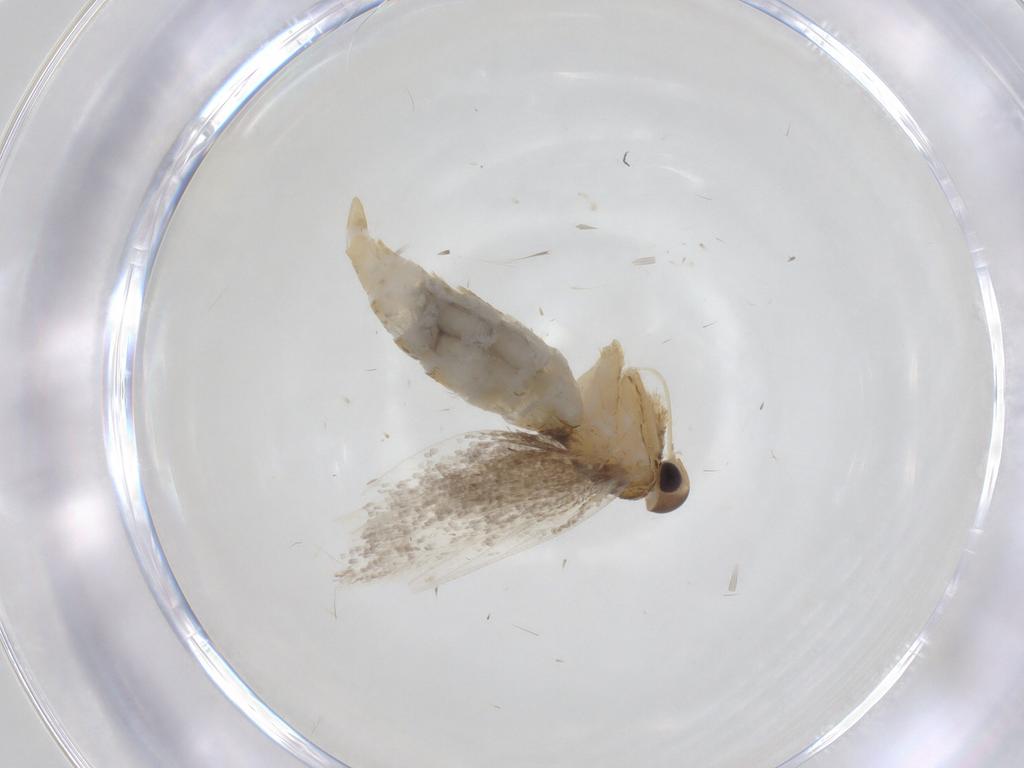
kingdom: Animalia
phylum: Arthropoda
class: Insecta
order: Lepidoptera
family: Oecophoridae
